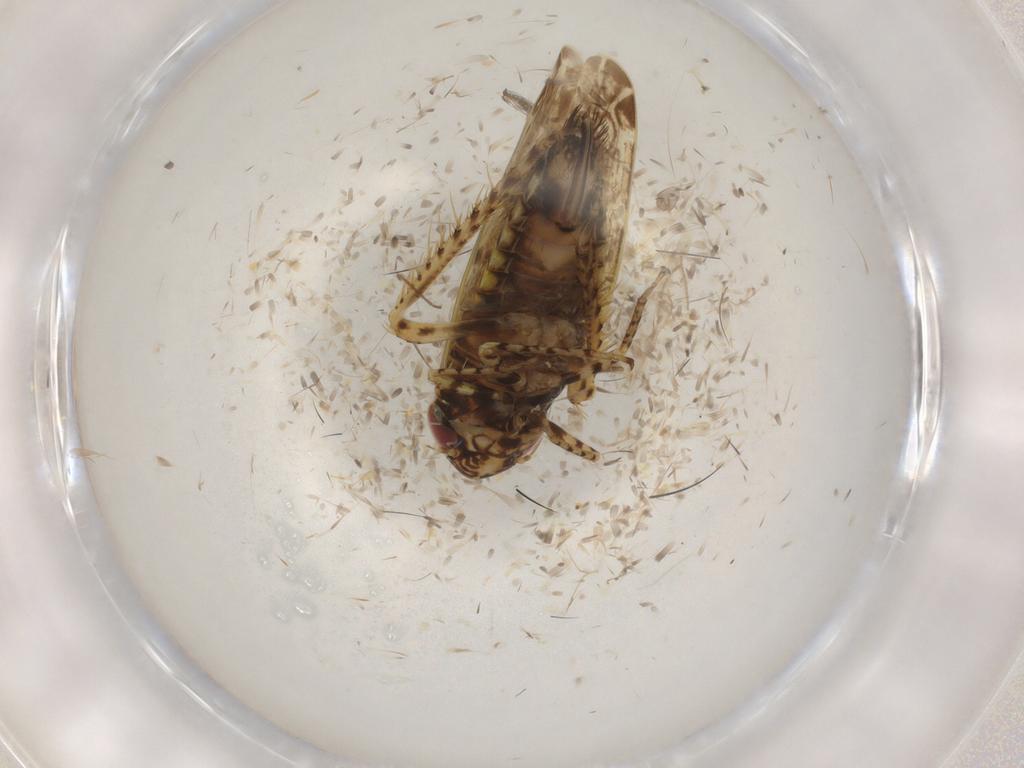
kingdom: Animalia
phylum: Arthropoda
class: Insecta
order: Hemiptera
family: Cicadellidae
